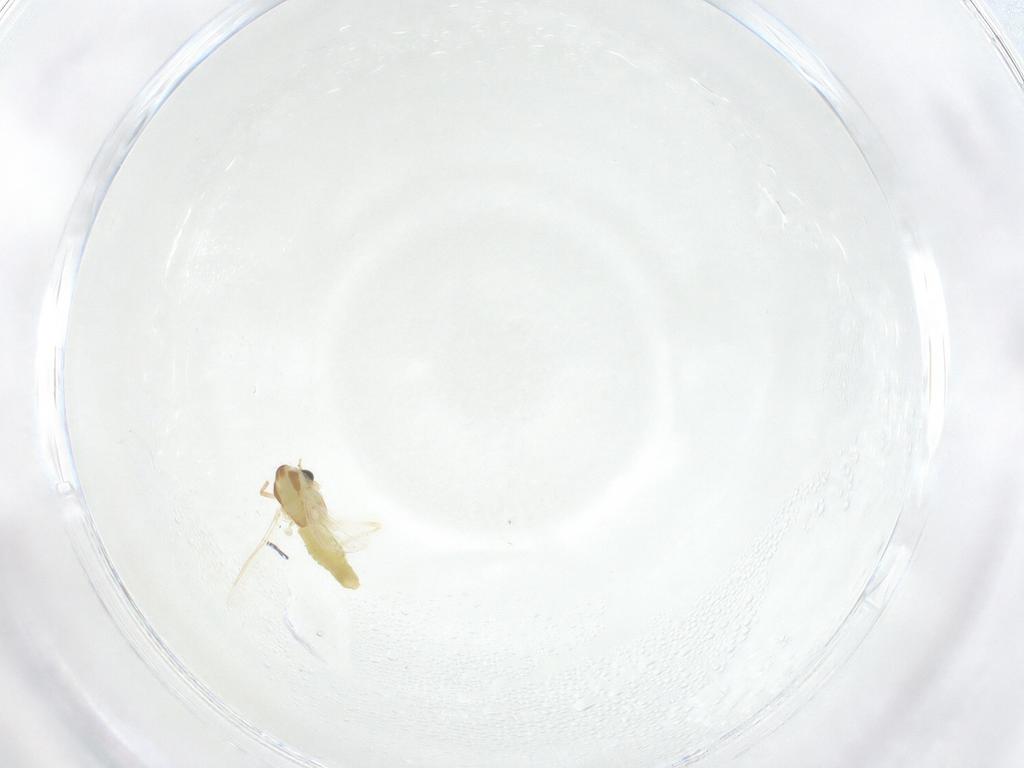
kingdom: Animalia
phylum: Arthropoda
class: Insecta
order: Diptera
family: Chironomidae
